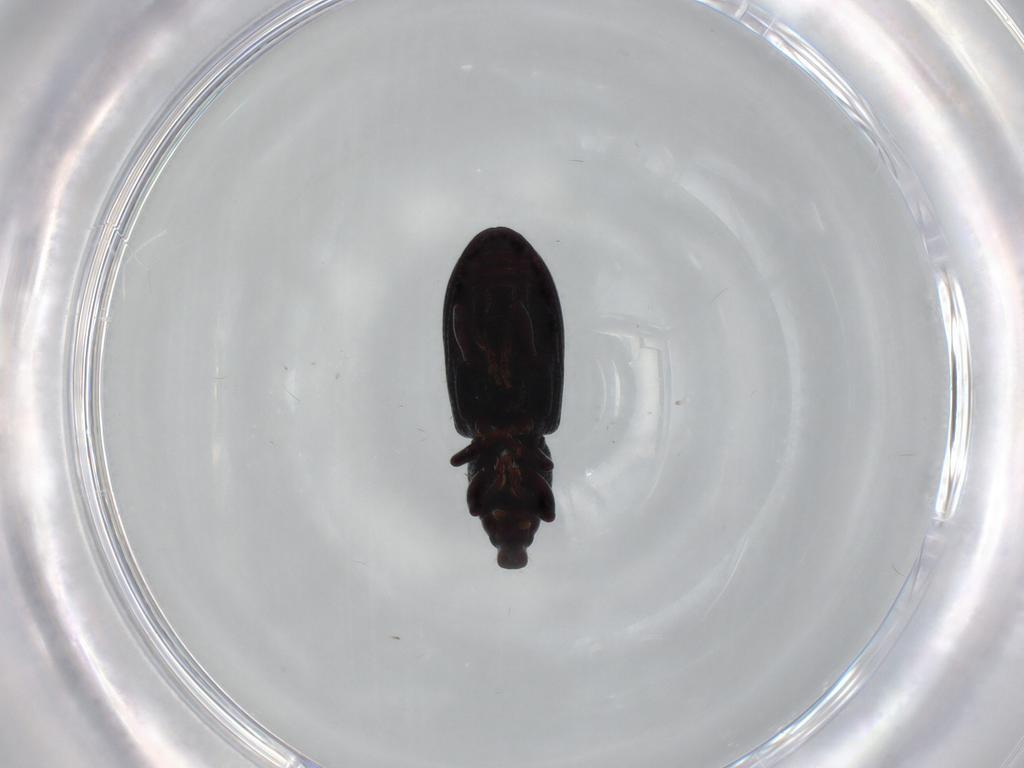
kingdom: Animalia
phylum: Arthropoda
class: Insecta
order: Coleoptera
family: Curculionidae
